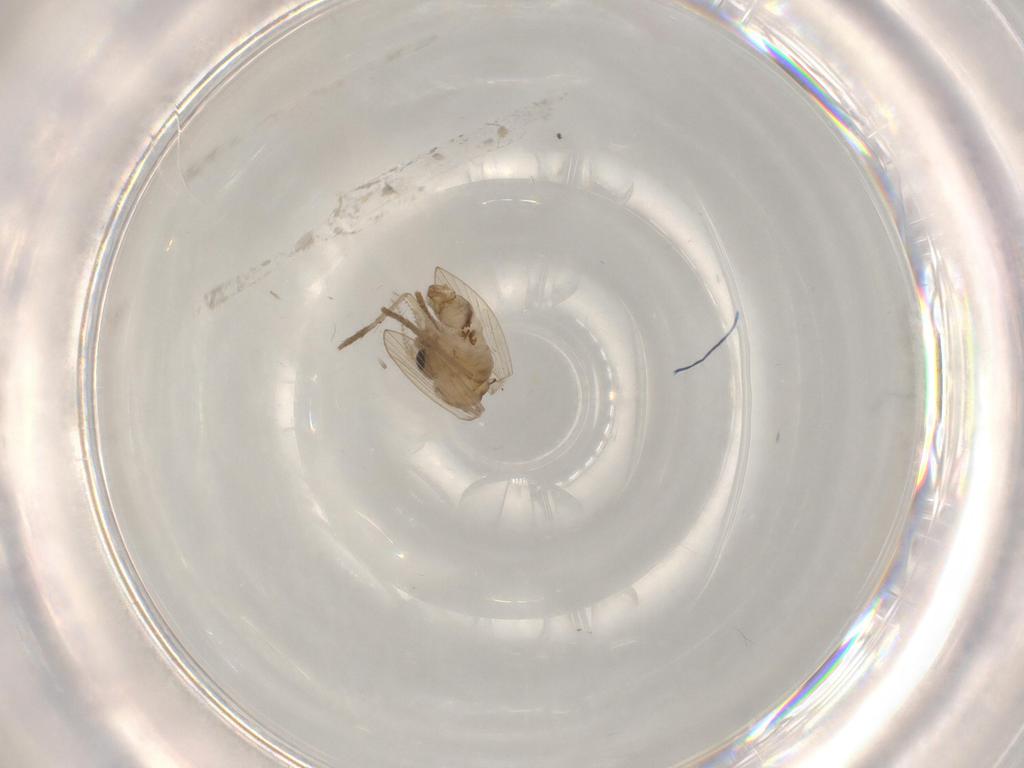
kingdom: Animalia
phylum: Arthropoda
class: Insecta
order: Diptera
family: Psychodidae
